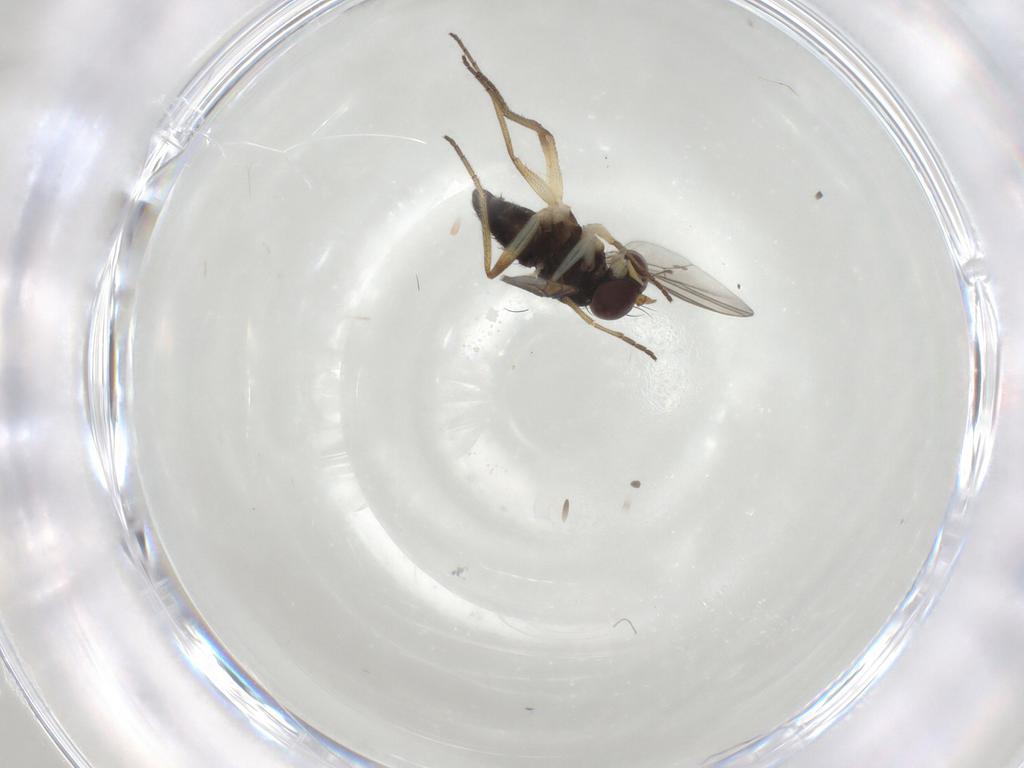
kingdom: Animalia
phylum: Arthropoda
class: Insecta
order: Diptera
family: Dolichopodidae
